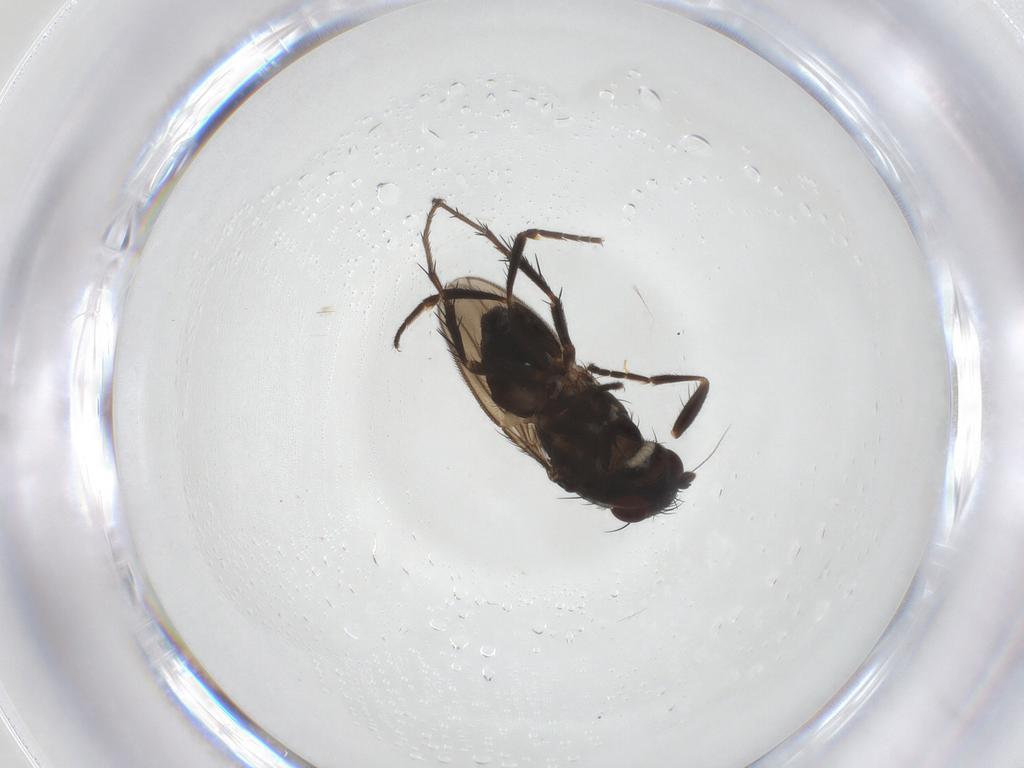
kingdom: Animalia
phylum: Arthropoda
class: Insecta
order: Diptera
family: Sphaeroceridae
